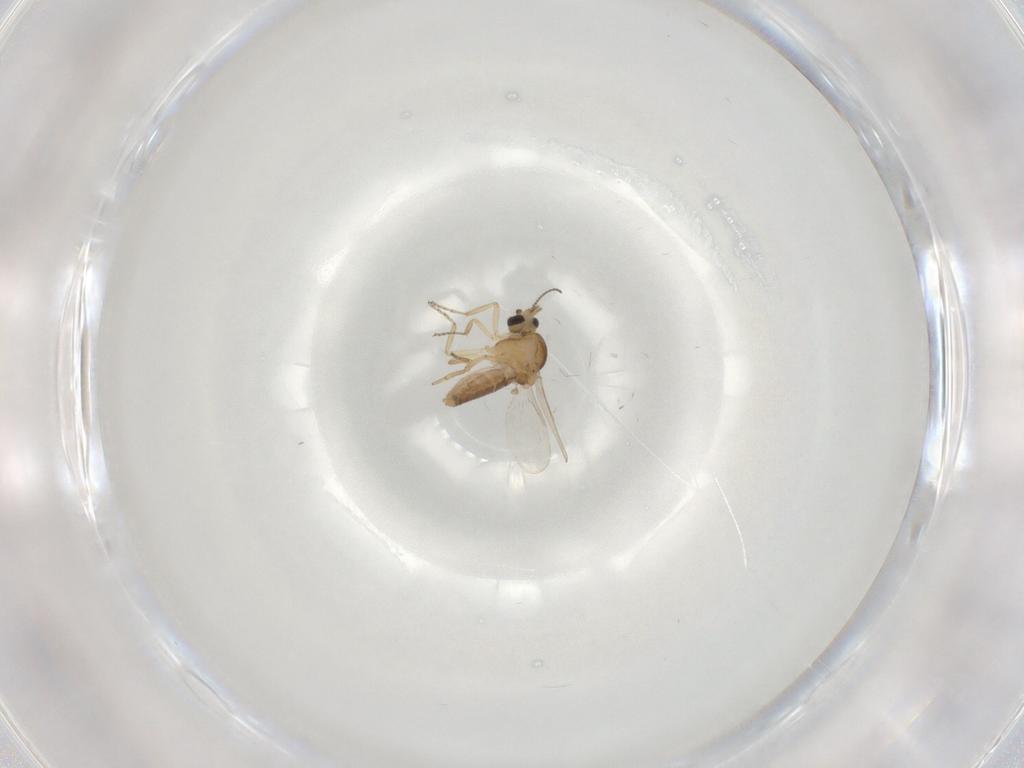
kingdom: Animalia
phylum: Arthropoda
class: Insecta
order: Diptera
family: Ceratopogonidae
